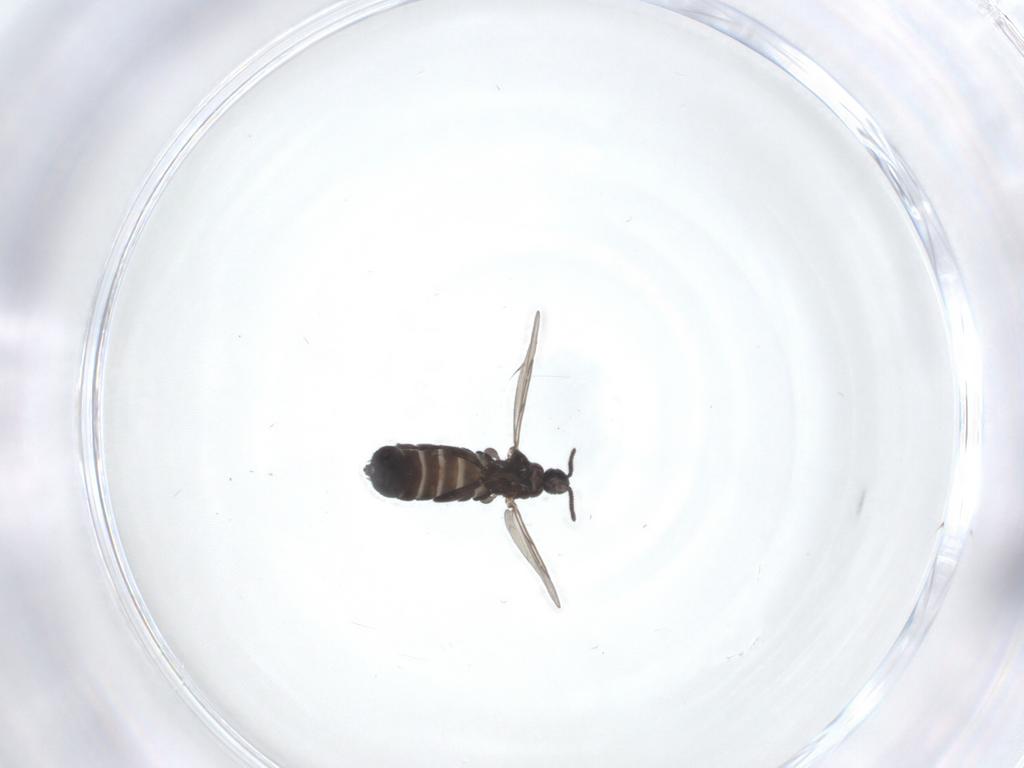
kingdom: Animalia
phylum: Arthropoda
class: Insecta
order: Diptera
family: Scatopsidae
